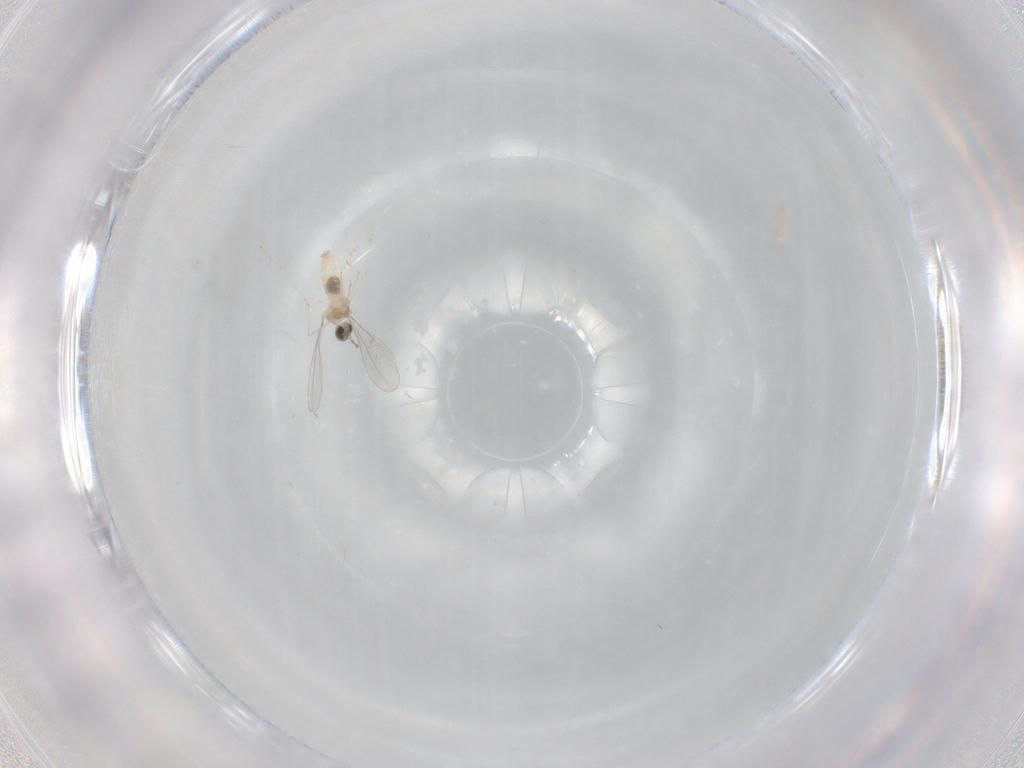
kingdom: Animalia
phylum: Arthropoda
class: Insecta
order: Diptera
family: Cecidomyiidae
